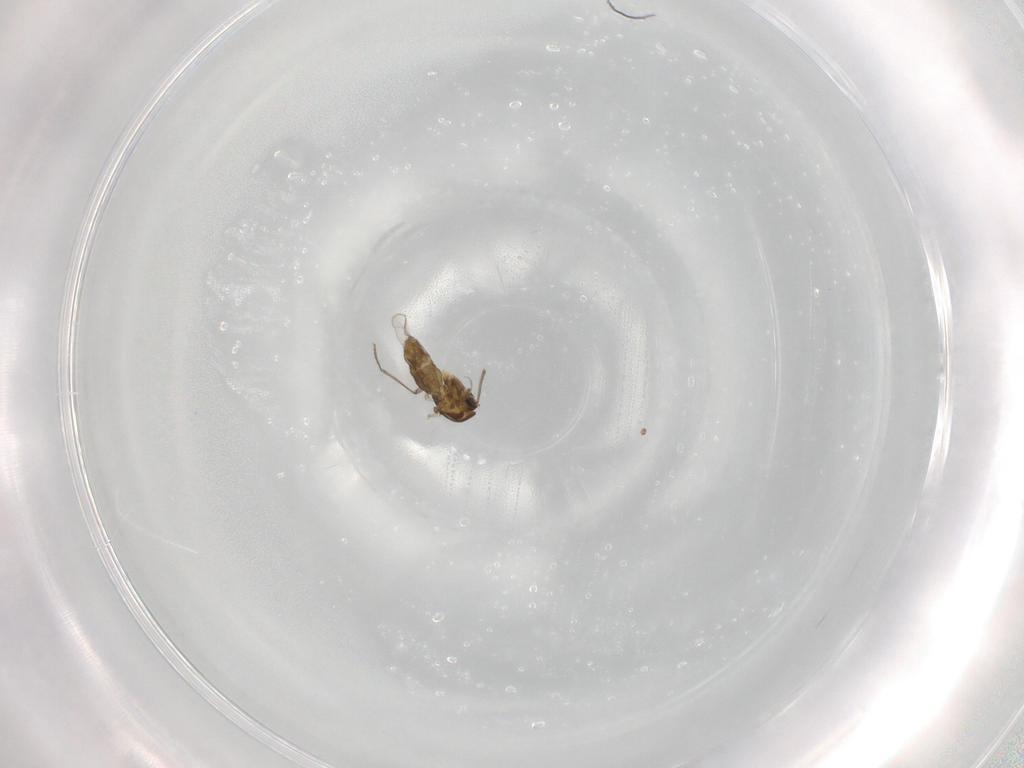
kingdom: Animalia
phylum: Arthropoda
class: Insecta
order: Diptera
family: Chironomidae
